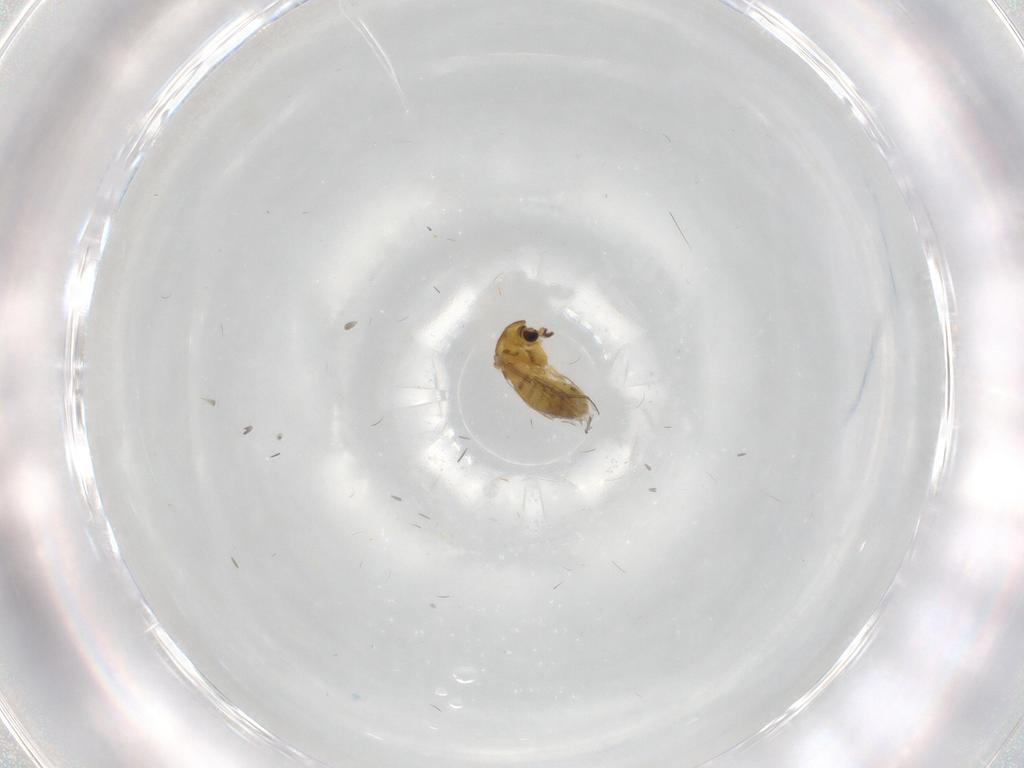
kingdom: Animalia
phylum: Arthropoda
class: Insecta
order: Diptera
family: Chironomidae
